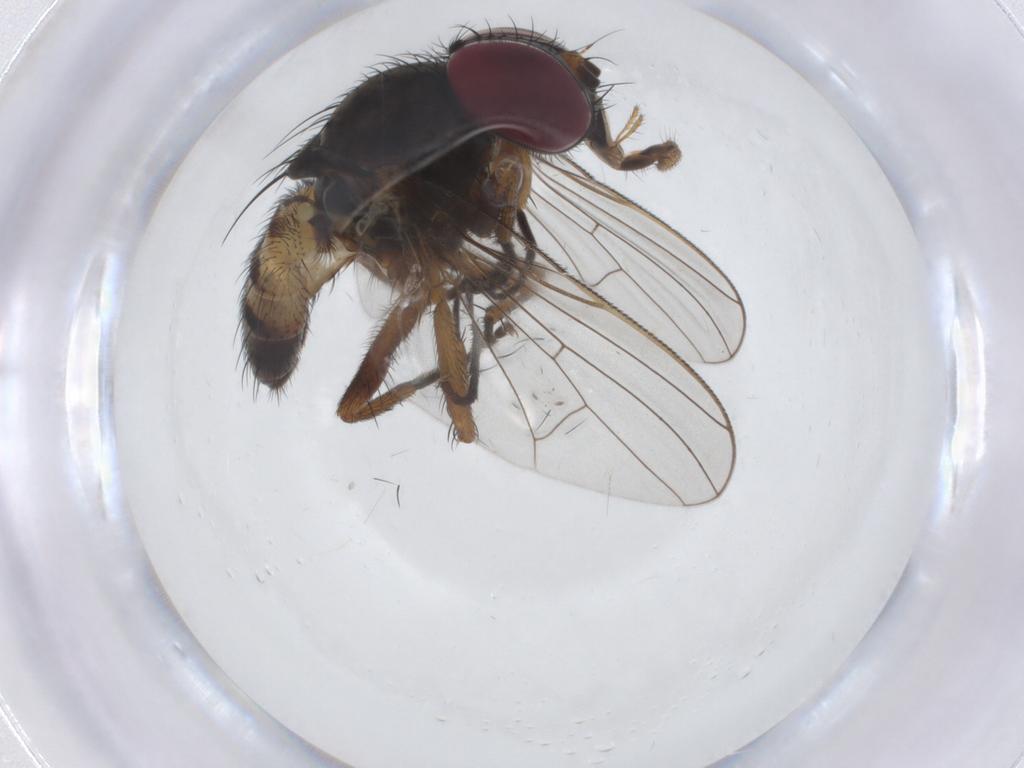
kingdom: Animalia
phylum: Arthropoda
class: Insecta
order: Diptera
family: Fannia
